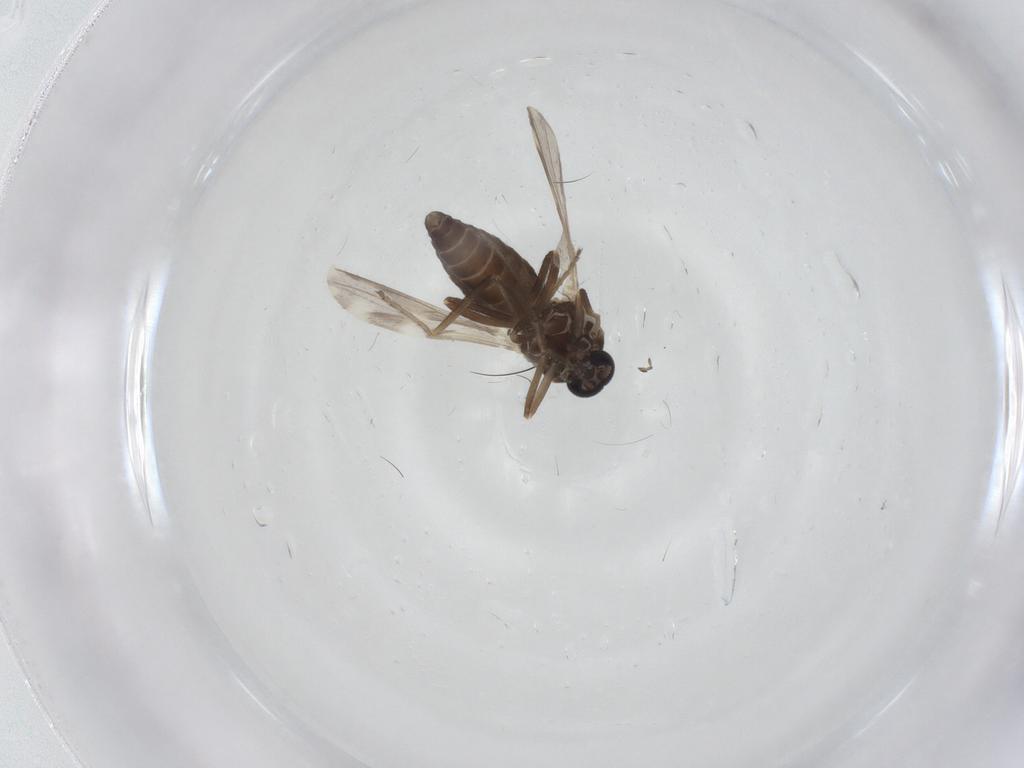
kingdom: Animalia
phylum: Arthropoda
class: Insecta
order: Diptera
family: Ceratopogonidae
